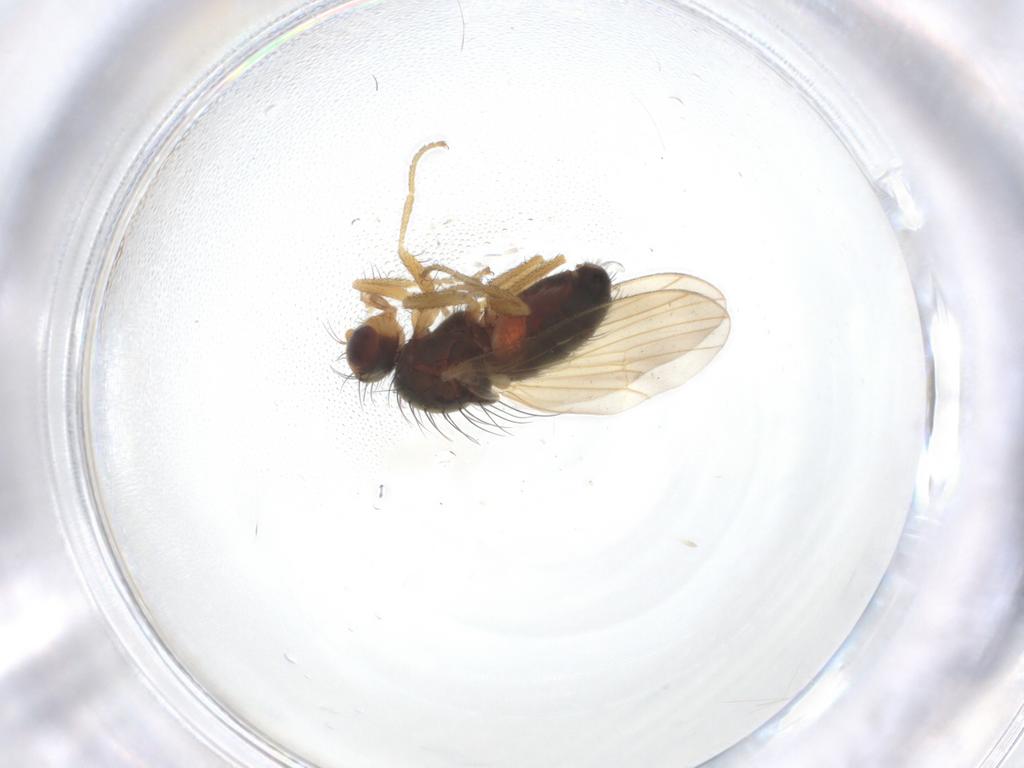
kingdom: Animalia
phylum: Arthropoda
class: Insecta
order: Diptera
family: Heleomyzidae
